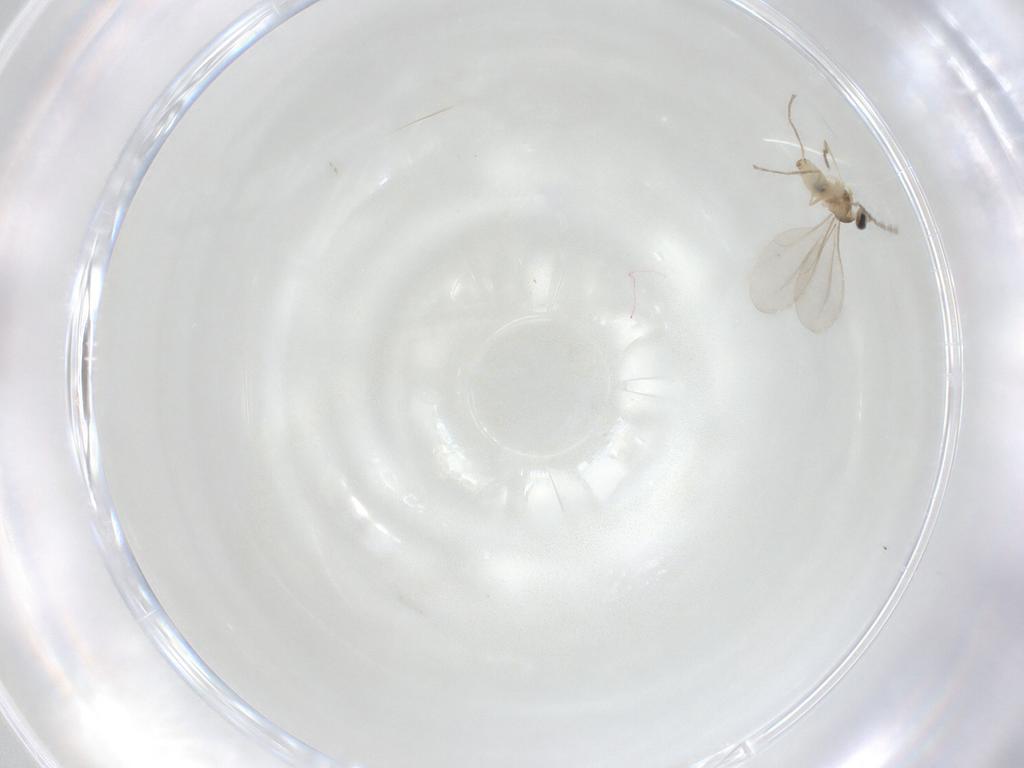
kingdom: Animalia
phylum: Arthropoda
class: Insecta
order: Diptera
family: Cecidomyiidae
